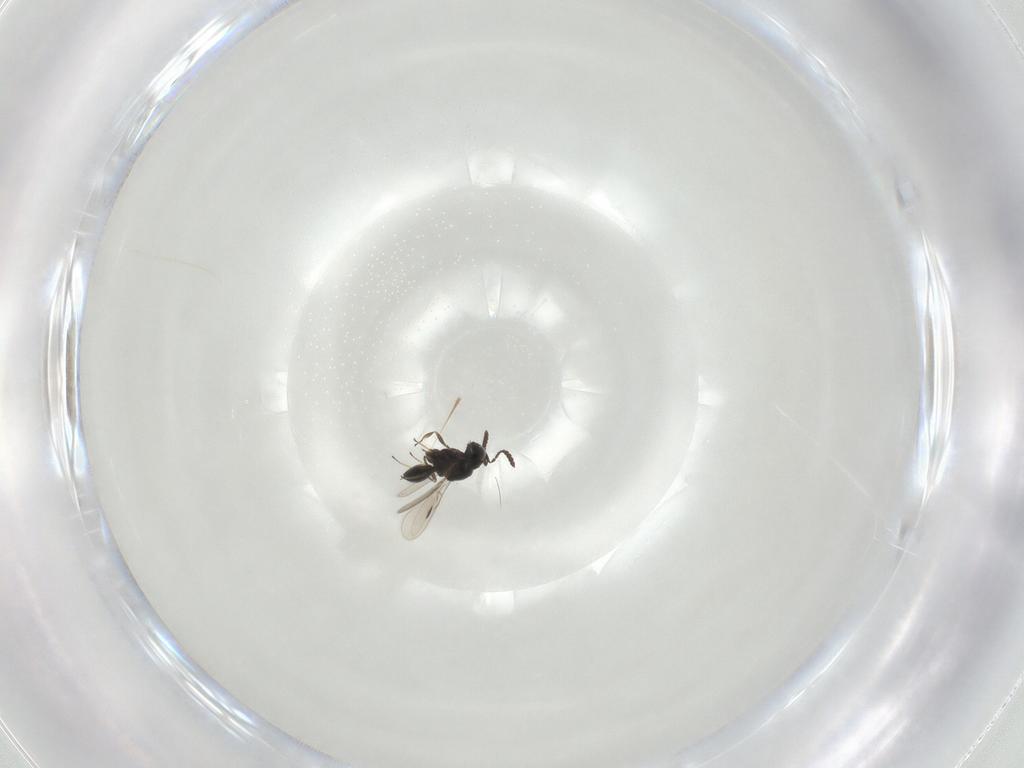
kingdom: Animalia
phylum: Arthropoda
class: Insecta
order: Hymenoptera
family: Scelionidae
